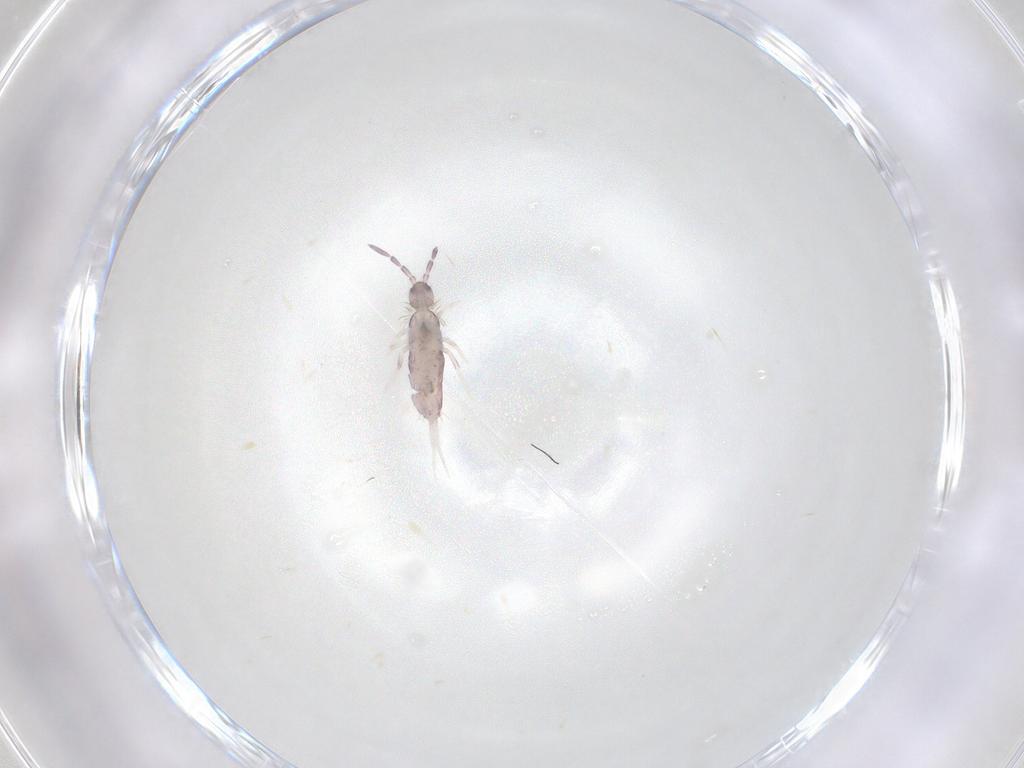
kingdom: Animalia
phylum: Arthropoda
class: Collembola
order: Entomobryomorpha
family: Entomobryidae
